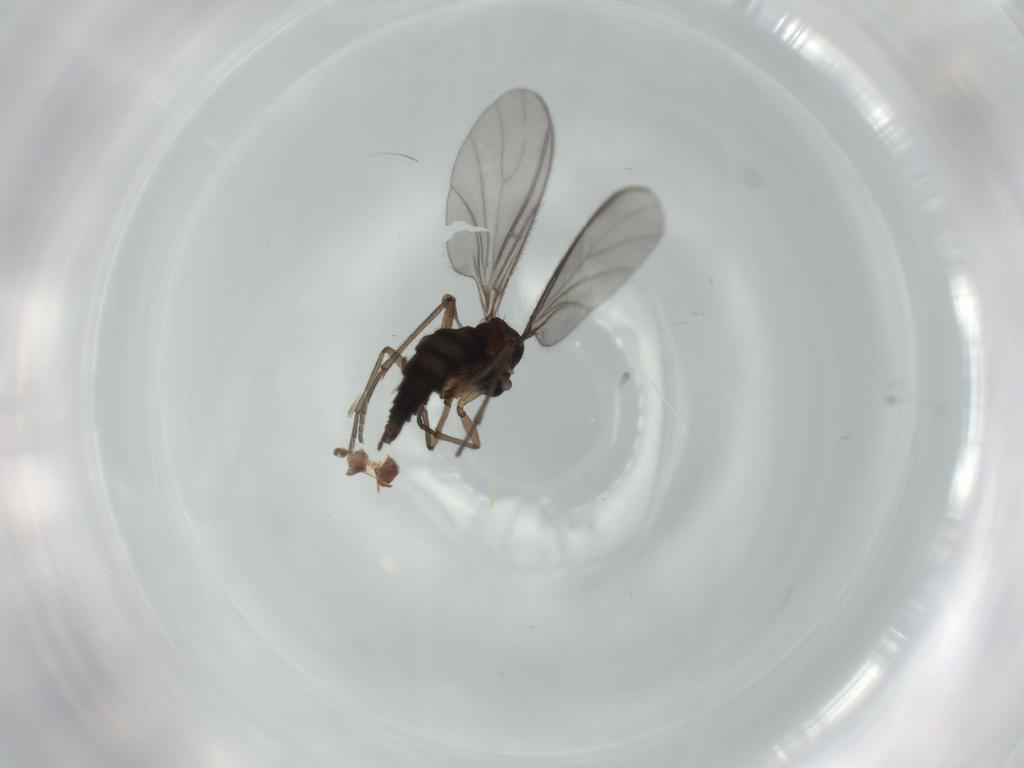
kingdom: Animalia
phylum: Arthropoda
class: Insecta
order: Diptera
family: Sciaridae
